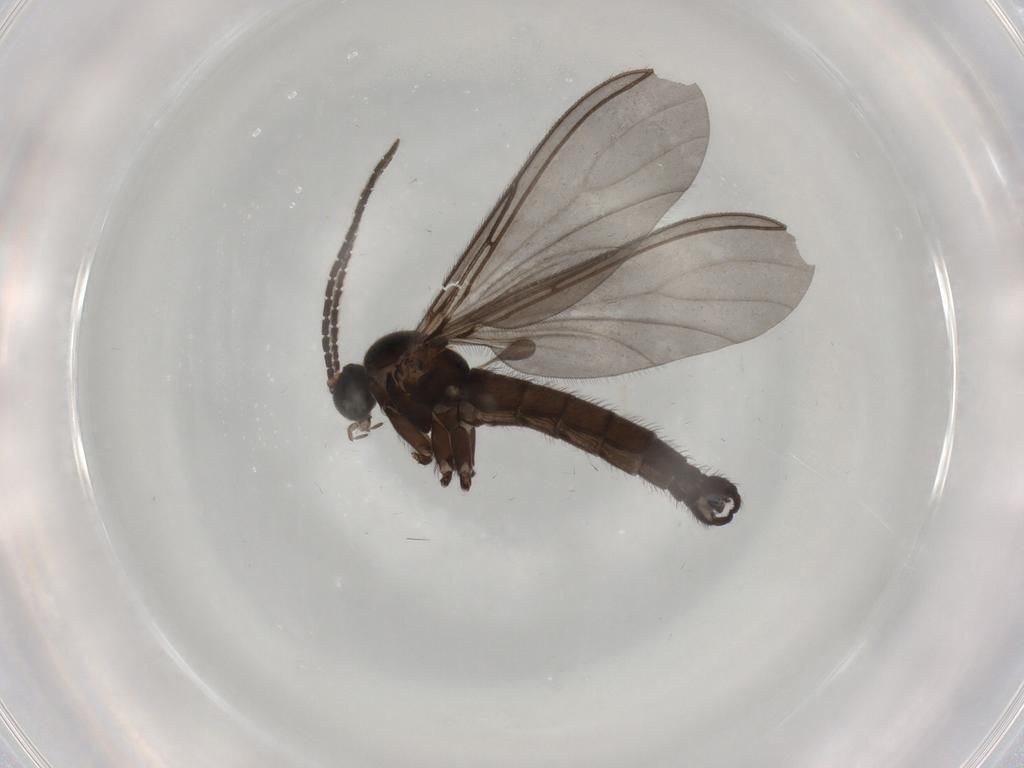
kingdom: Animalia
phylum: Arthropoda
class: Insecta
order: Diptera
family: Sciaridae
